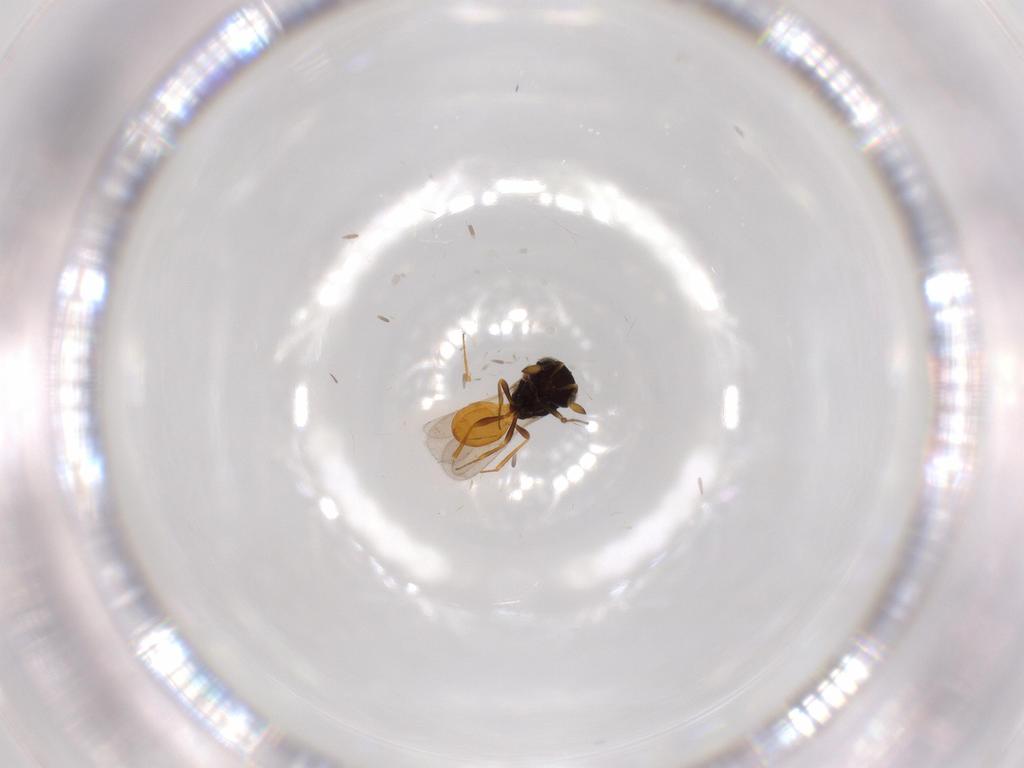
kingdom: Animalia
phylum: Arthropoda
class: Insecta
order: Hymenoptera
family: Scelionidae
